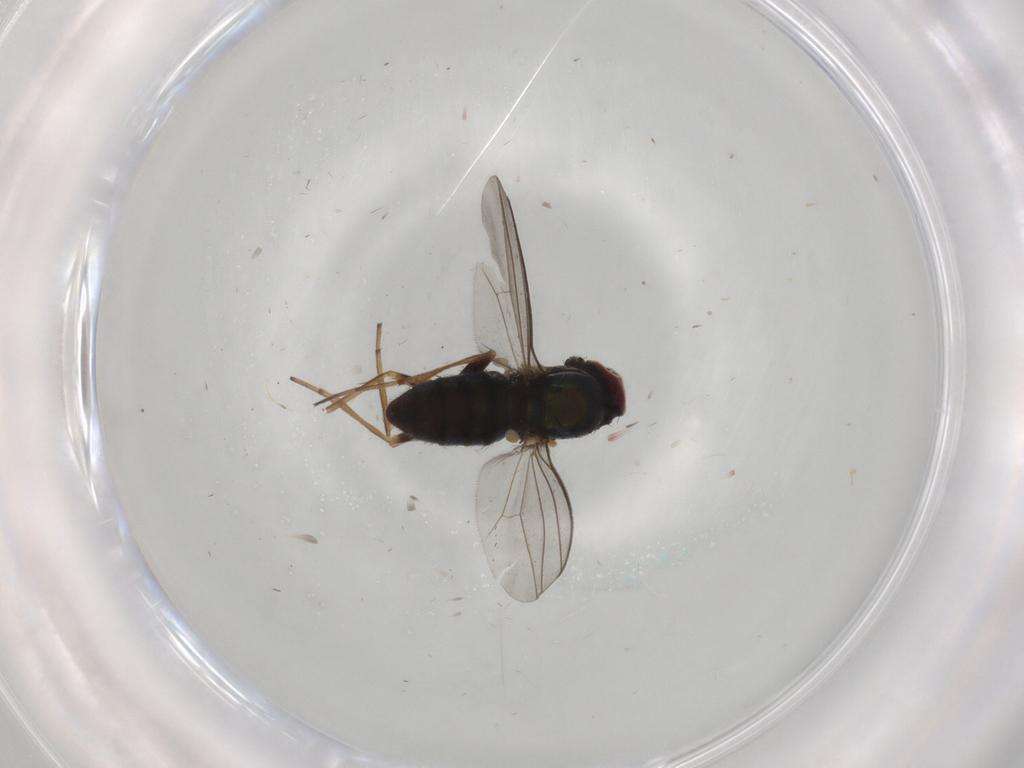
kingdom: Animalia
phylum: Arthropoda
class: Insecta
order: Diptera
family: Dolichopodidae
